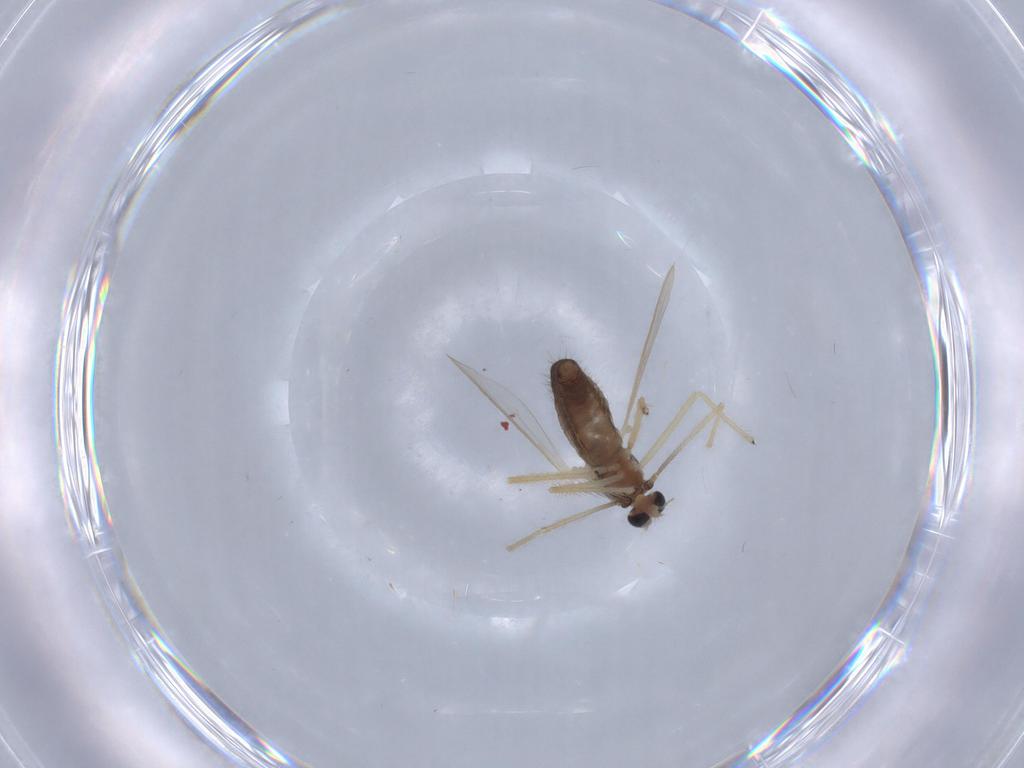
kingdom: Animalia
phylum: Arthropoda
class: Insecta
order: Diptera
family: Chironomidae
